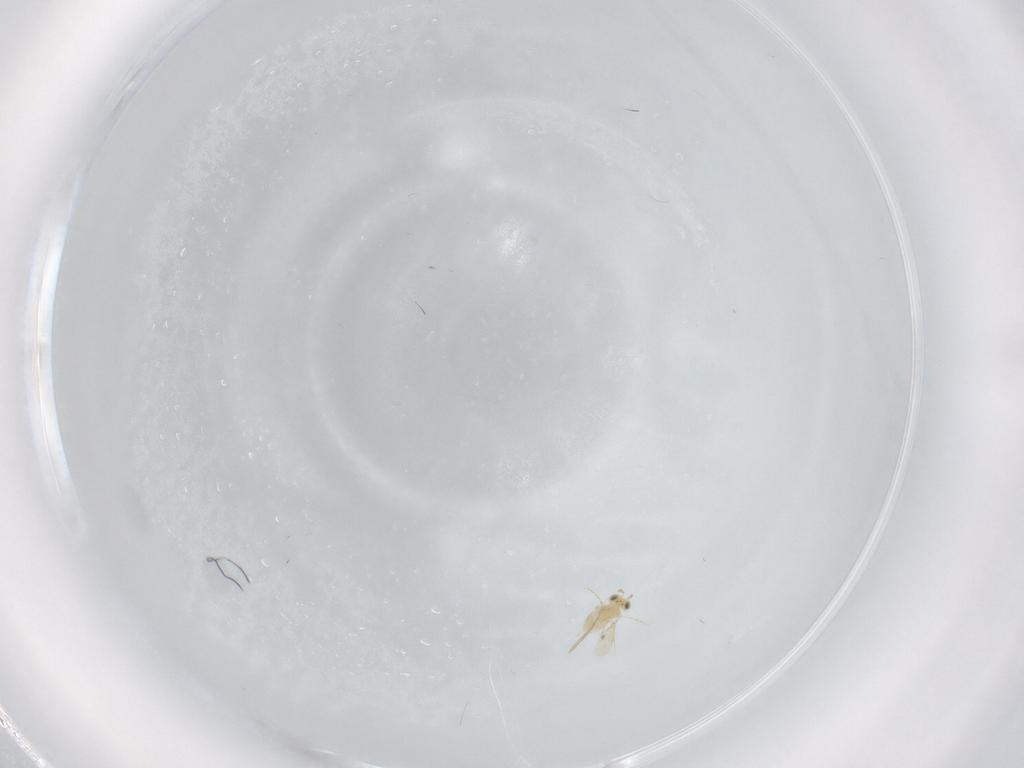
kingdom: Animalia
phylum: Arthropoda
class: Insecta
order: Hymenoptera
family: Aphelinidae
